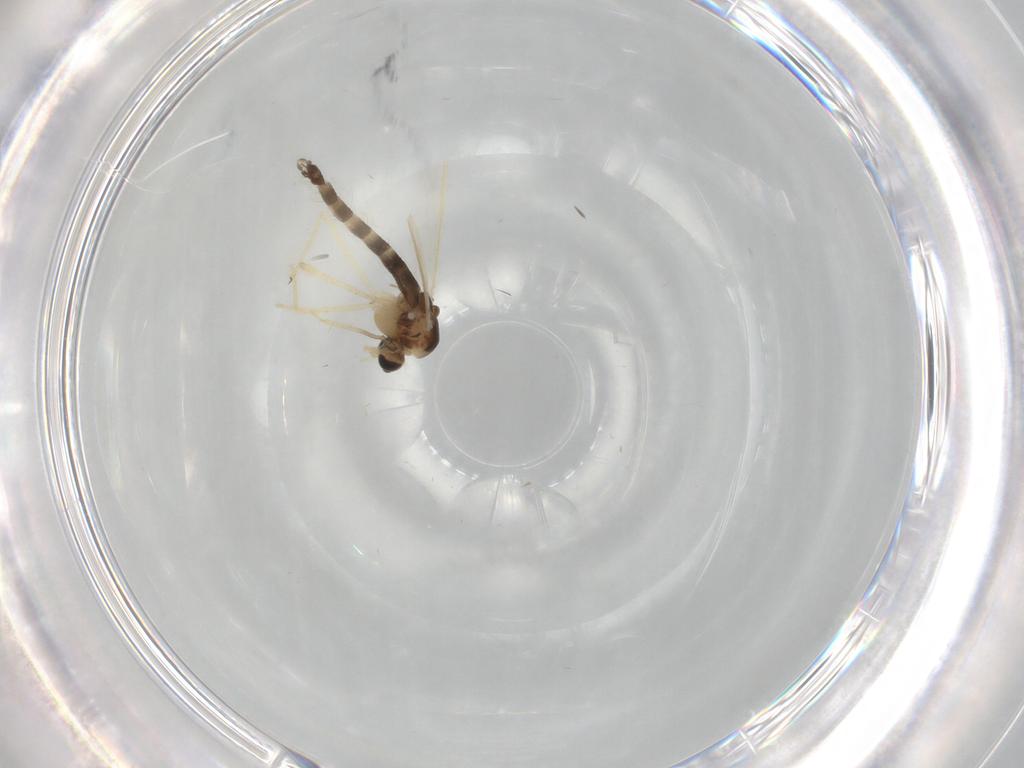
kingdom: Animalia
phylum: Arthropoda
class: Insecta
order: Diptera
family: Chironomidae
